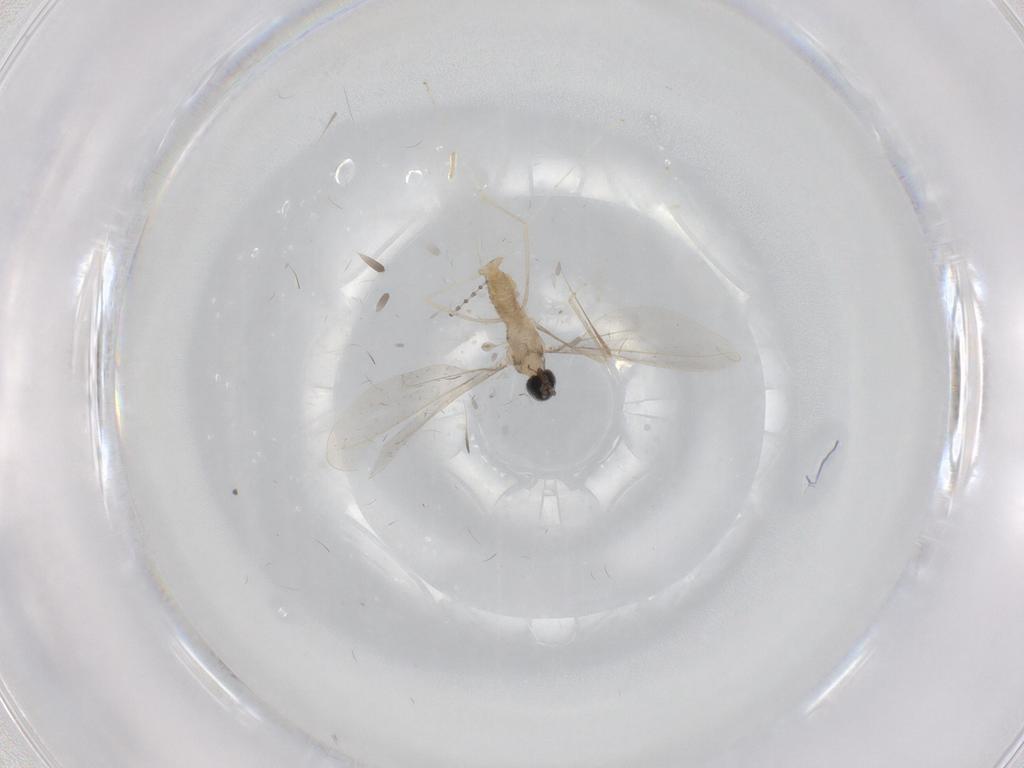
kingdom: Animalia
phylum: Arthropoda
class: Insecta
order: Diptera
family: Cecidomyiidae
